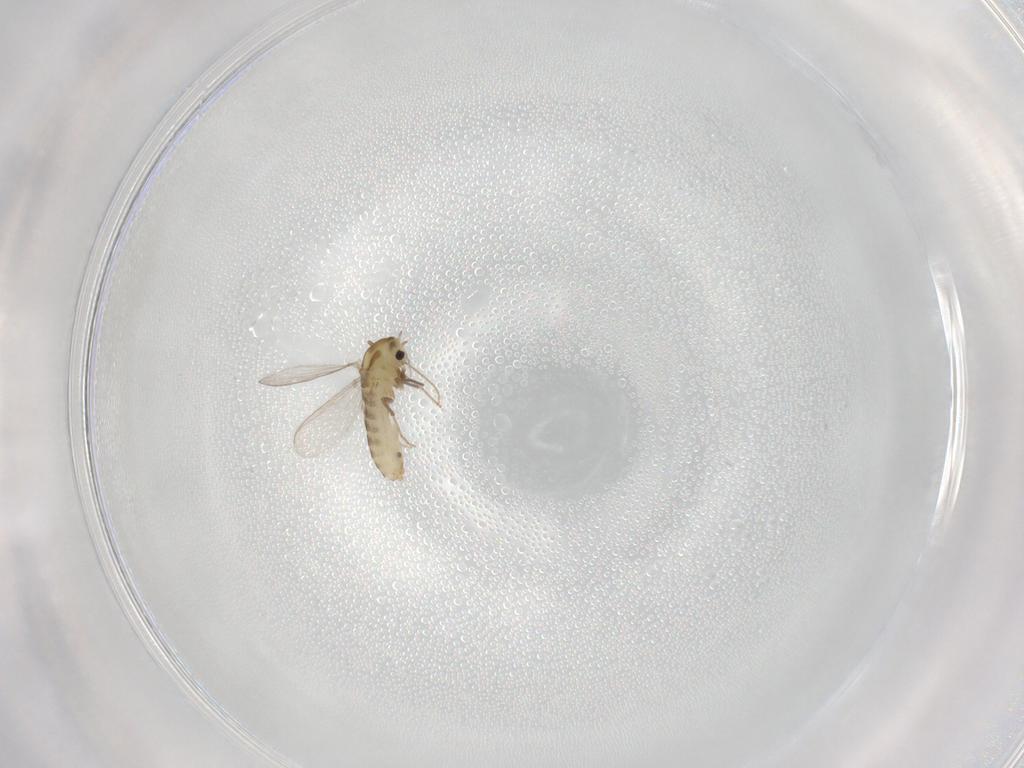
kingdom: Animalia
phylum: Arthropoda
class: Insecta
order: Diptera
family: Chironomidae
